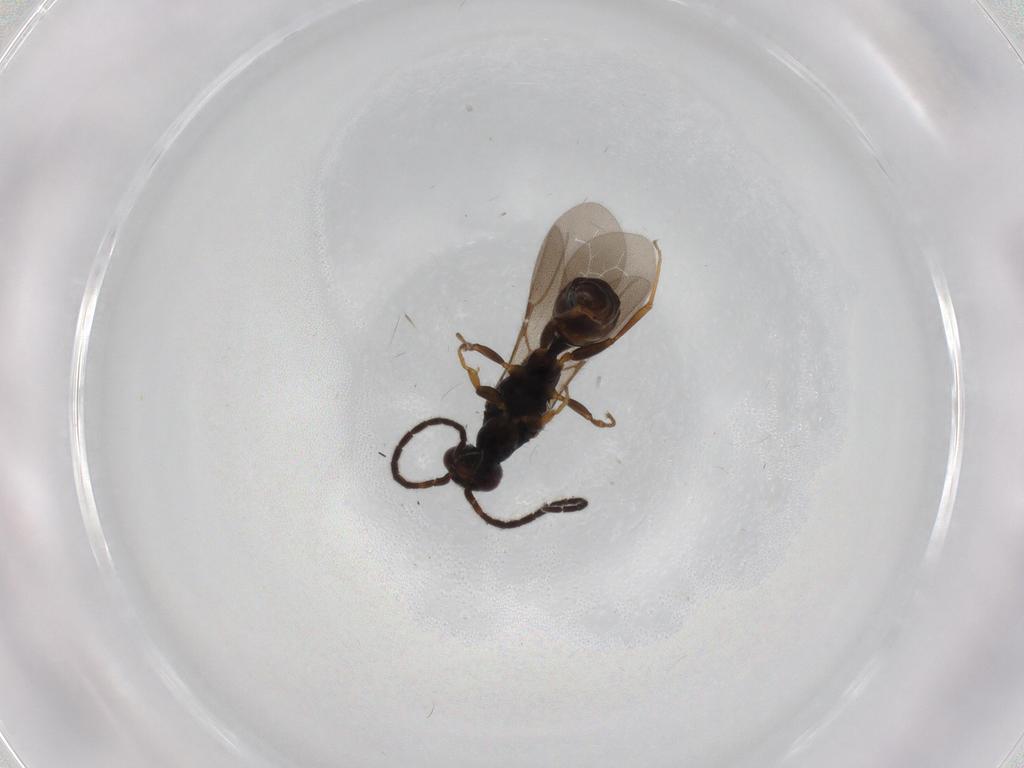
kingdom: Animalia
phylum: Arthropoda
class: Insecta
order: Hymenoptera
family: Bethylidae
